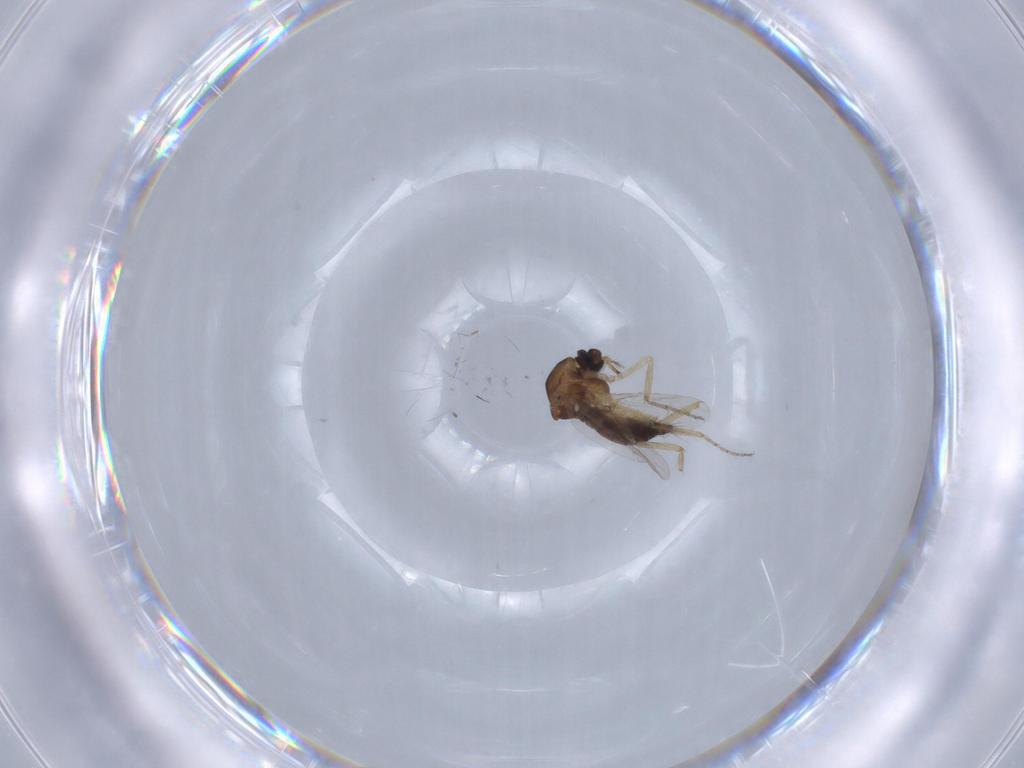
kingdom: Animalia
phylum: Arthropoda
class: Insecta
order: Diptera
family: Ceratopogonidae
